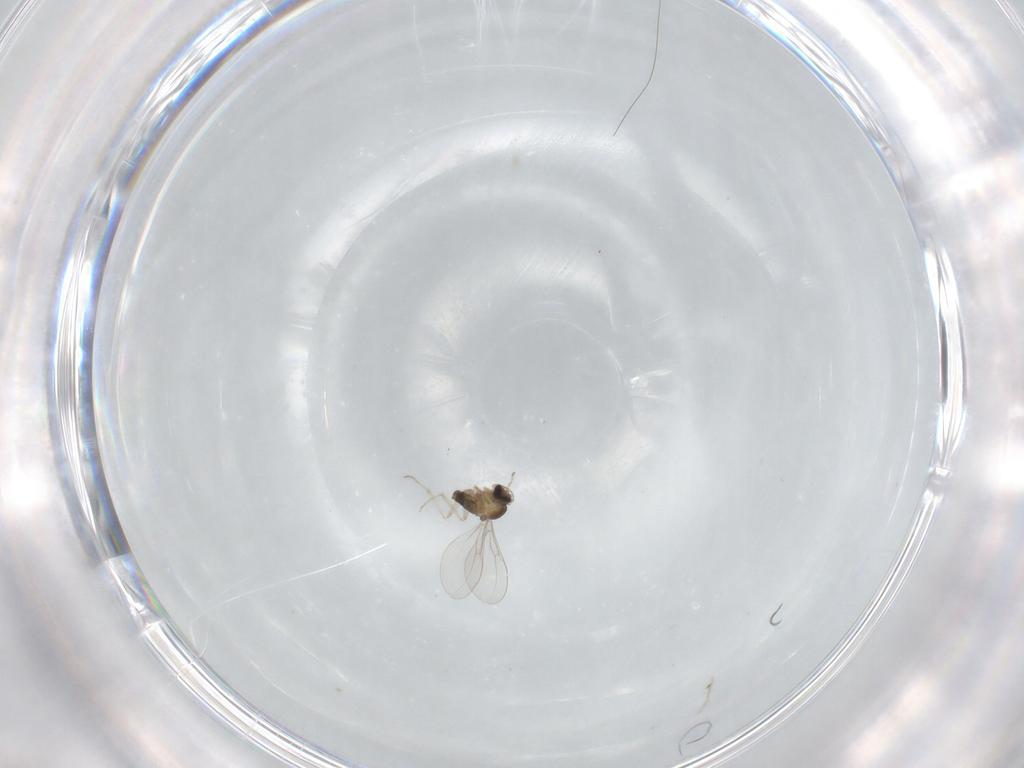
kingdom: Animalia
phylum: Arthropoda
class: Insecta
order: Diptera
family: Cecidomyiidae
